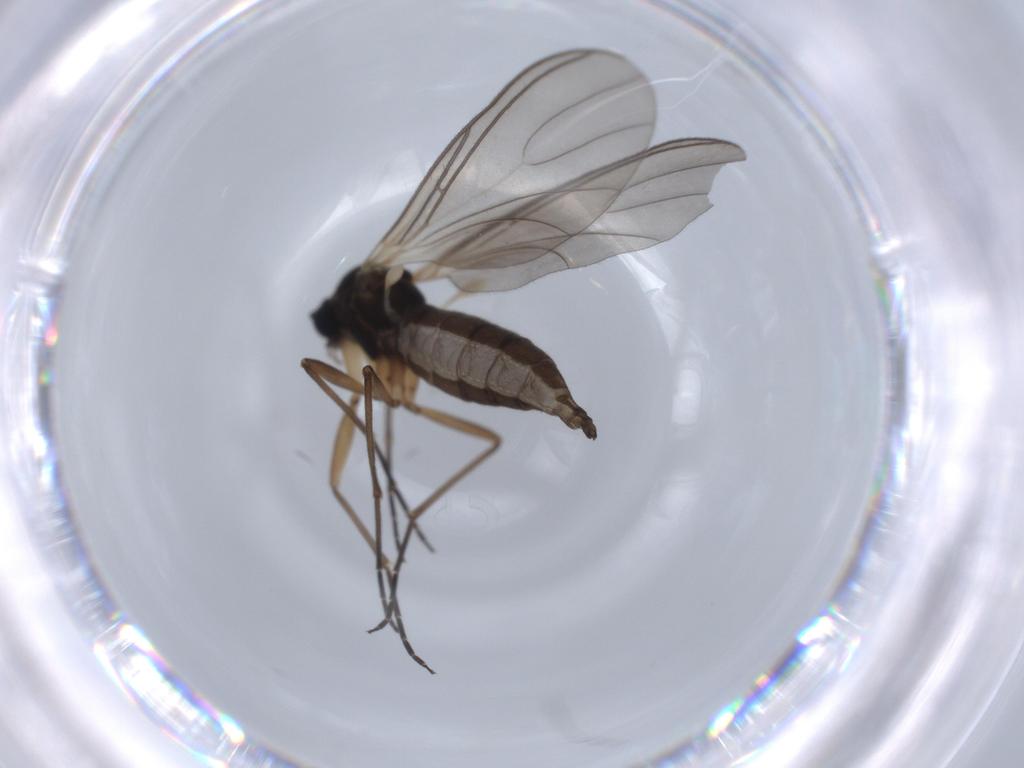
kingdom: Animalia
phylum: Arthropoda
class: Insecta
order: Diptera
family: Sciaridae
